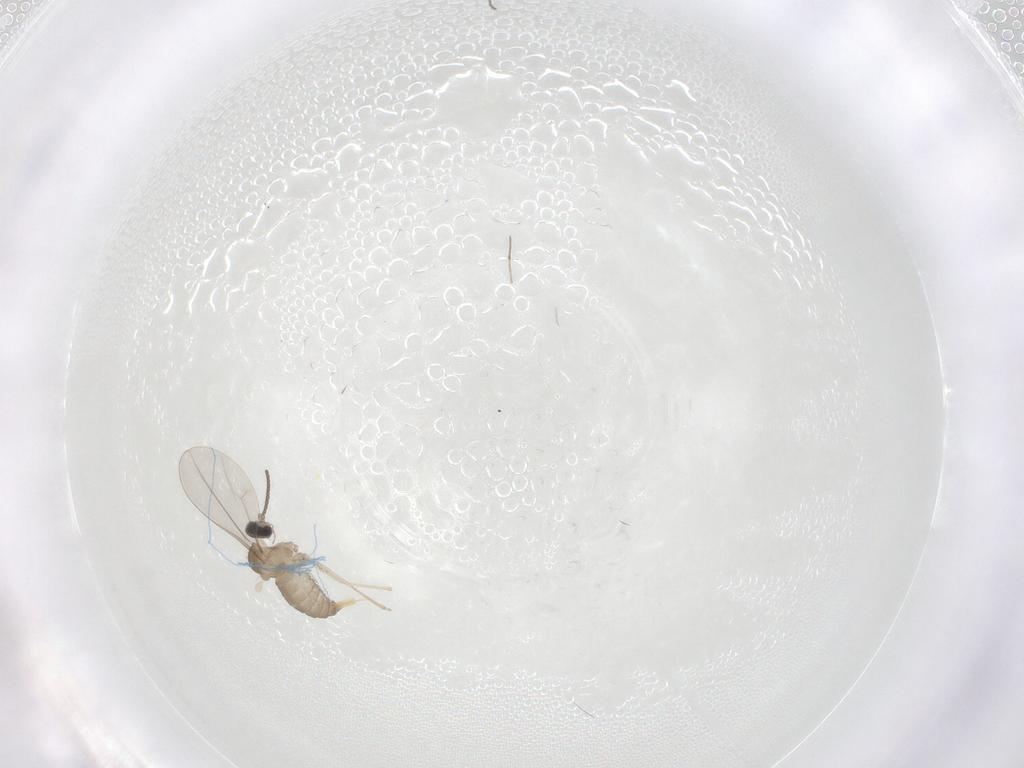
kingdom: Animalia
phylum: Arthropoda
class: Insecta
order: Diptera
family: Cecidomyiidae
